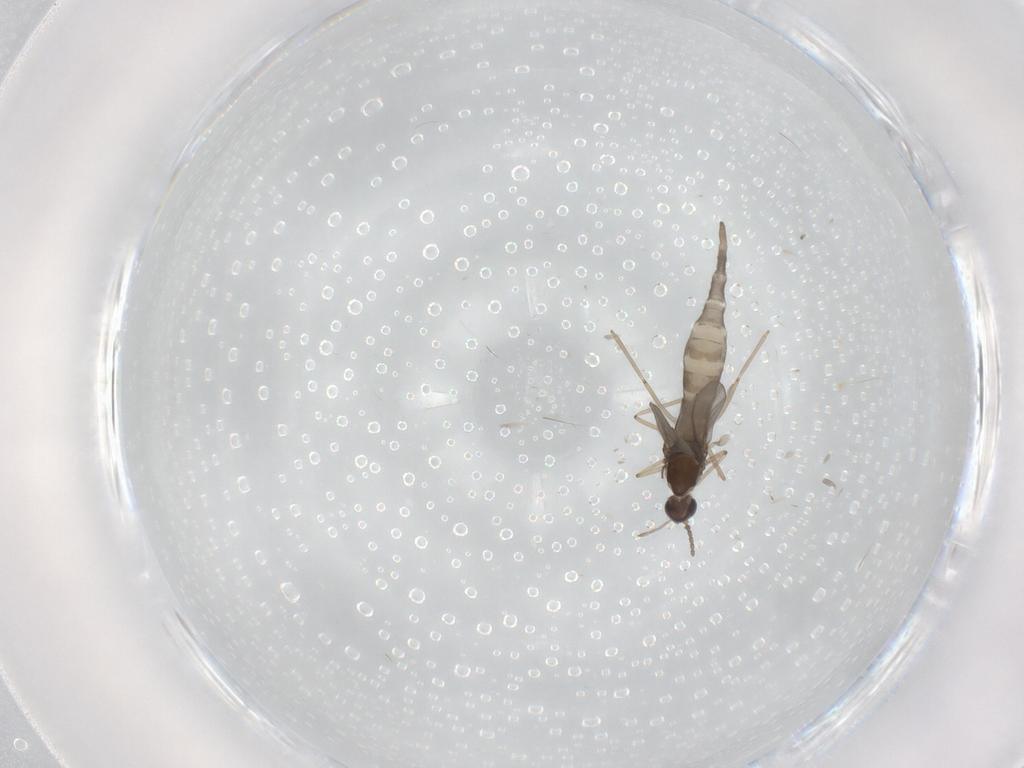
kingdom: Animalia
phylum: Arthropoda
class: Insecta
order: Diptera
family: Cecidomyiidae
